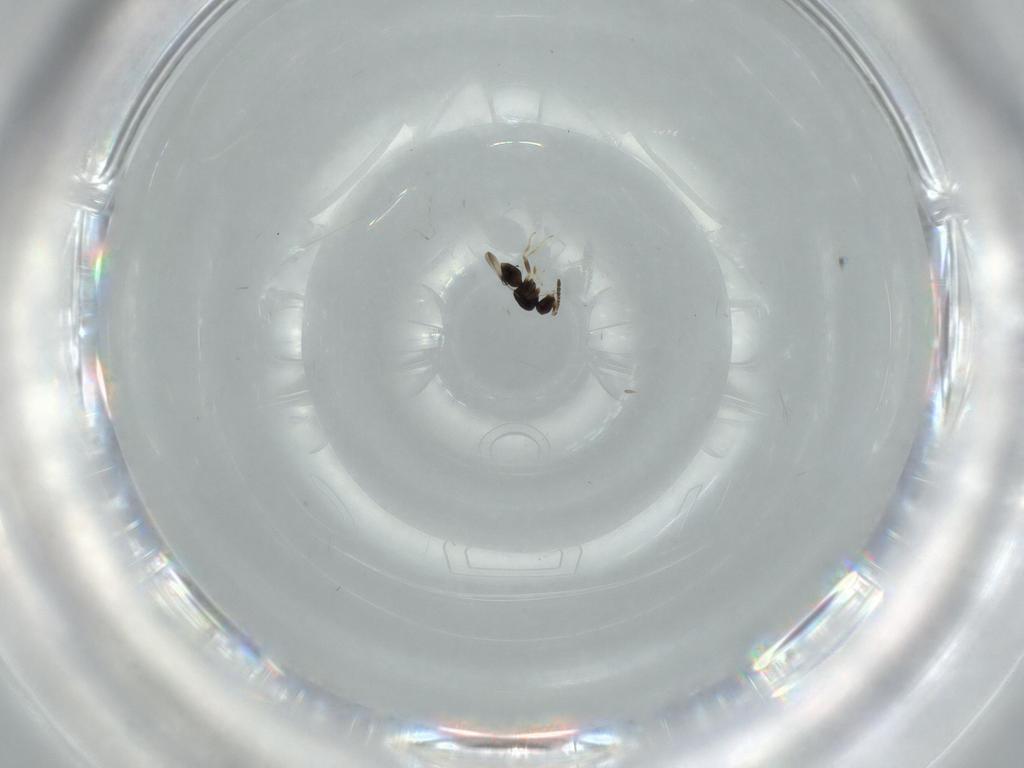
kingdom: Animalia
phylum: Arthropoda
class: Insecta
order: Hymenoptera
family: Ceraphronidae
